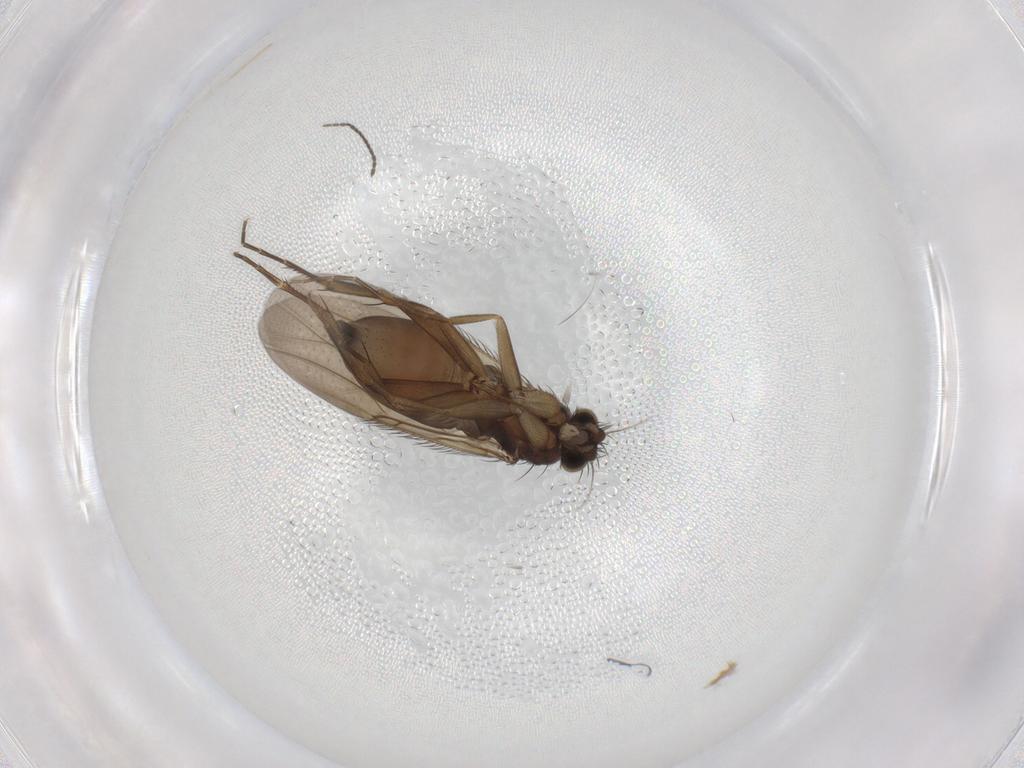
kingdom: Animalia
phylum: Arthropoda
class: Insecta
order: Diptera
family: Phoridae
